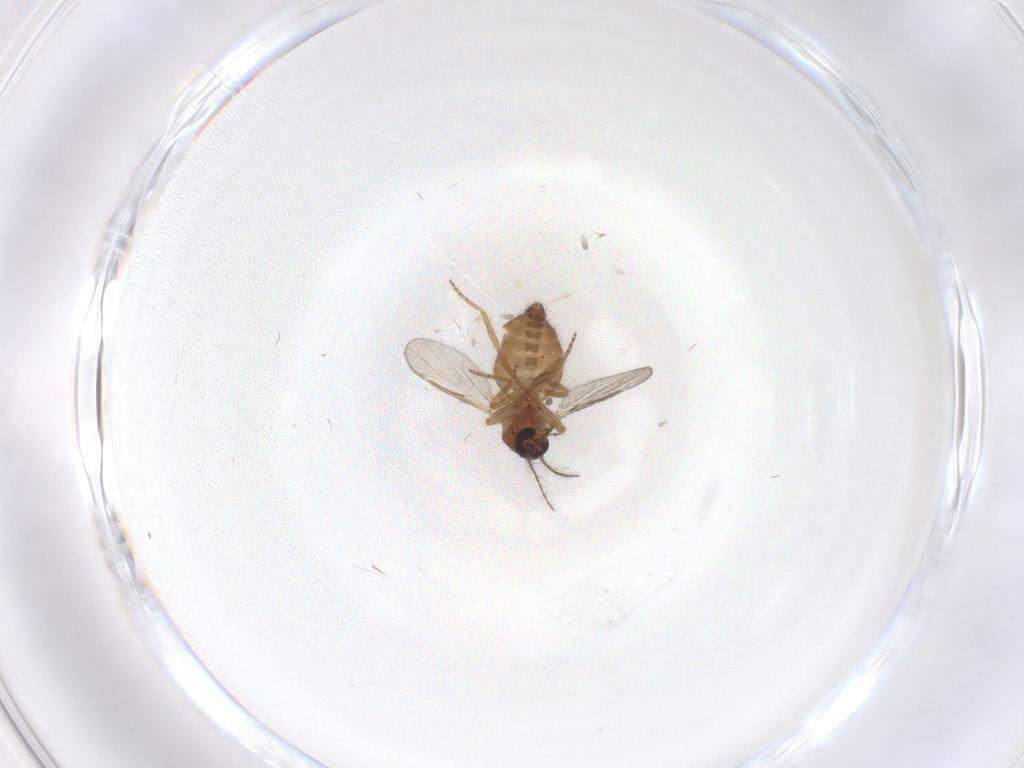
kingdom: Animalia
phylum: Arthropoda
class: Insecta
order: Diptera
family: Ceratopogonidae
